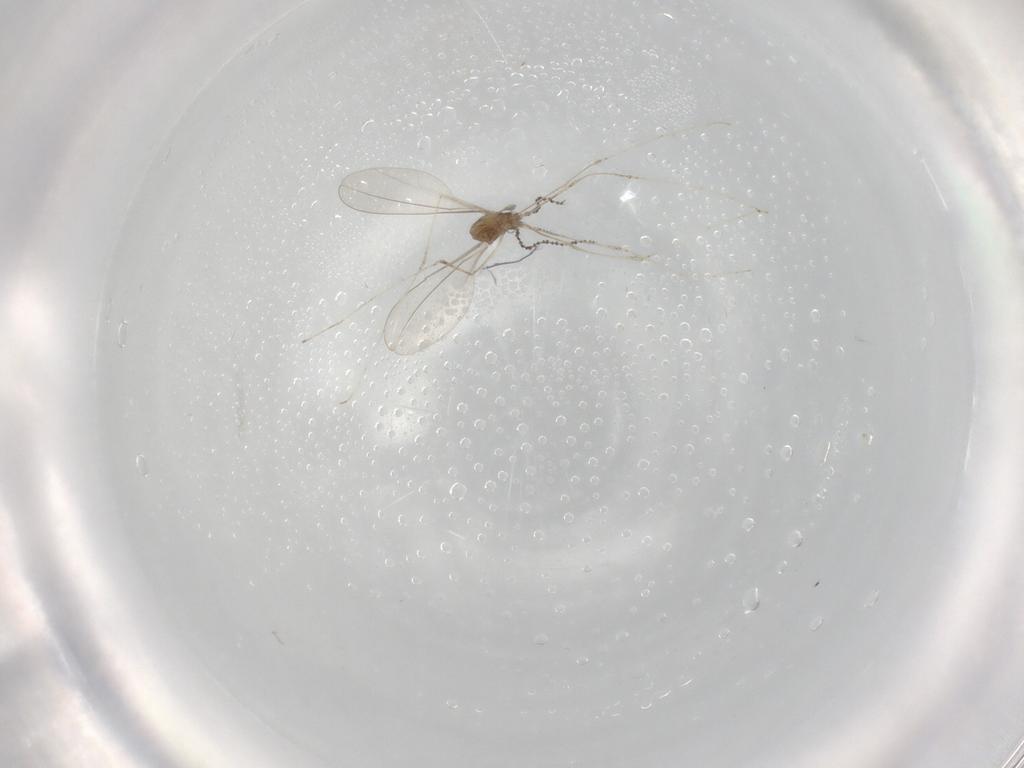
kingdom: Animalia
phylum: Arthropoda
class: Insecta
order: Diptera
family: Cecidomyiidae
